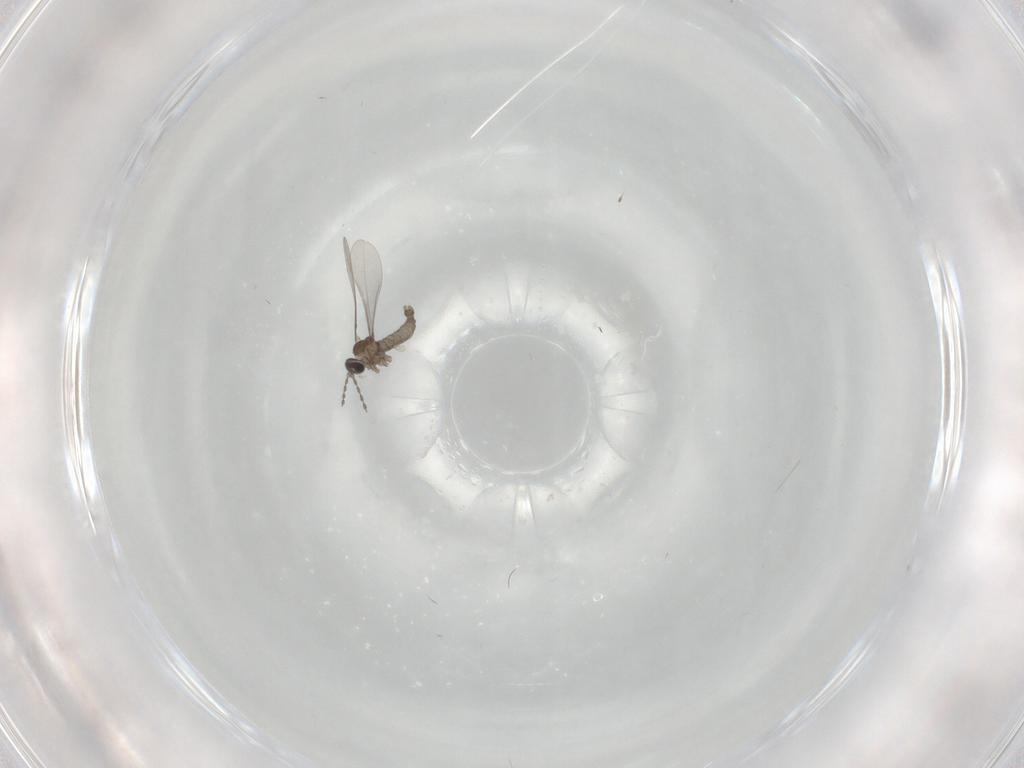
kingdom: Animalia
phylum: Arthropoda
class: Insecta
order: Diptera
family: Cecidomyiidae
